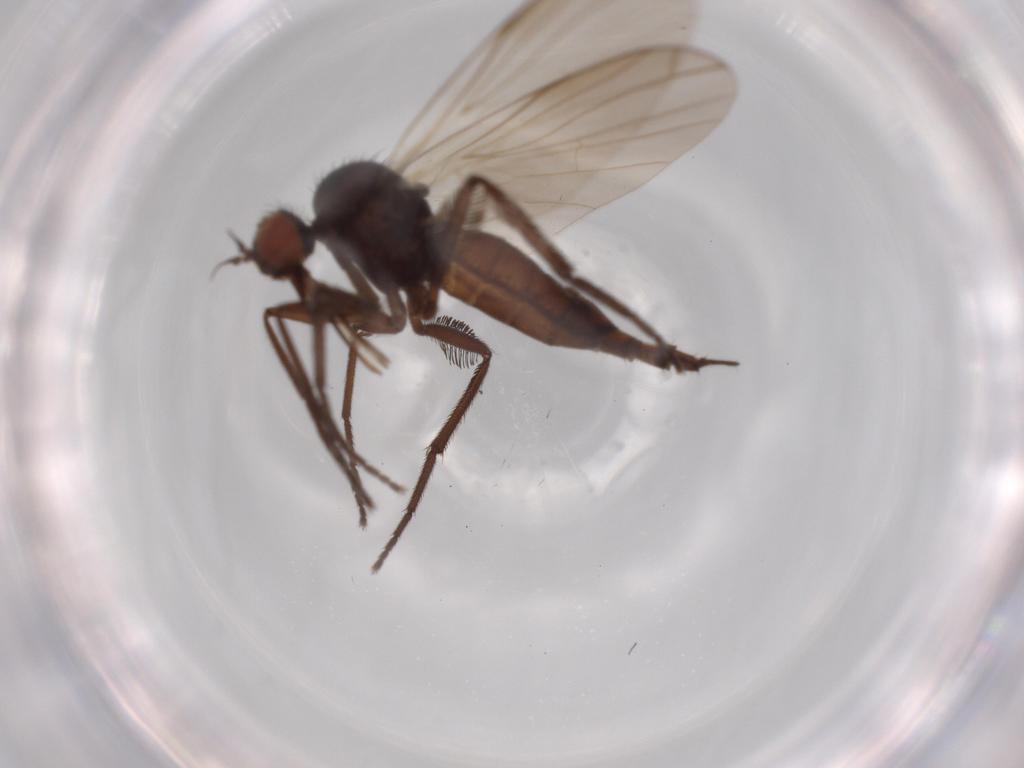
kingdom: Animalia
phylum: Arthropoda
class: Insecta
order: Diptera
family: Empididae
